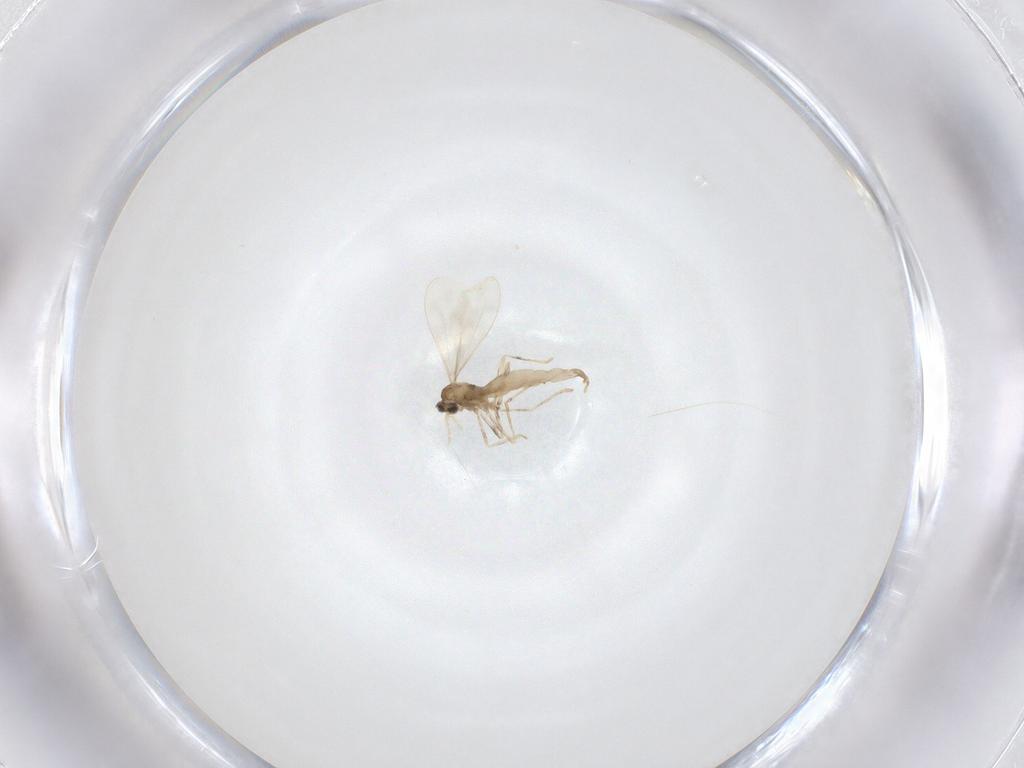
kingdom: Animalia
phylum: Arthropoda
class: Insecta
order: Diptera
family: Cecidomyiidae
